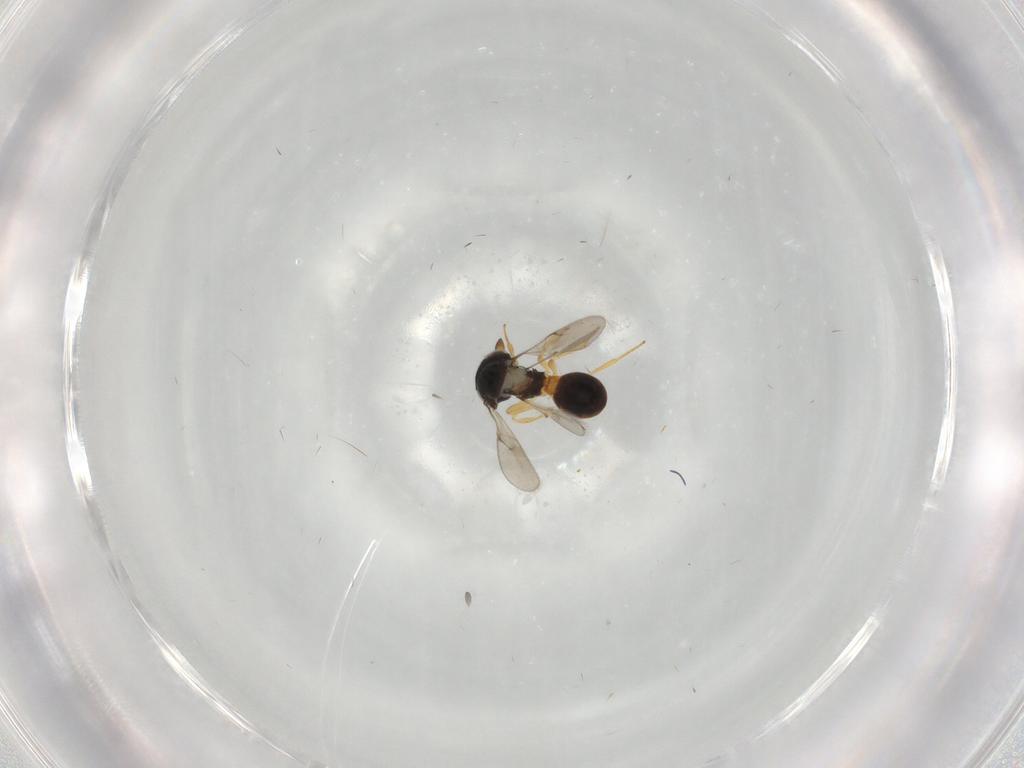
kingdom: Animalia
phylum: Arthropoda
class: Insecta
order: Hymenoptera
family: Scelionidae
